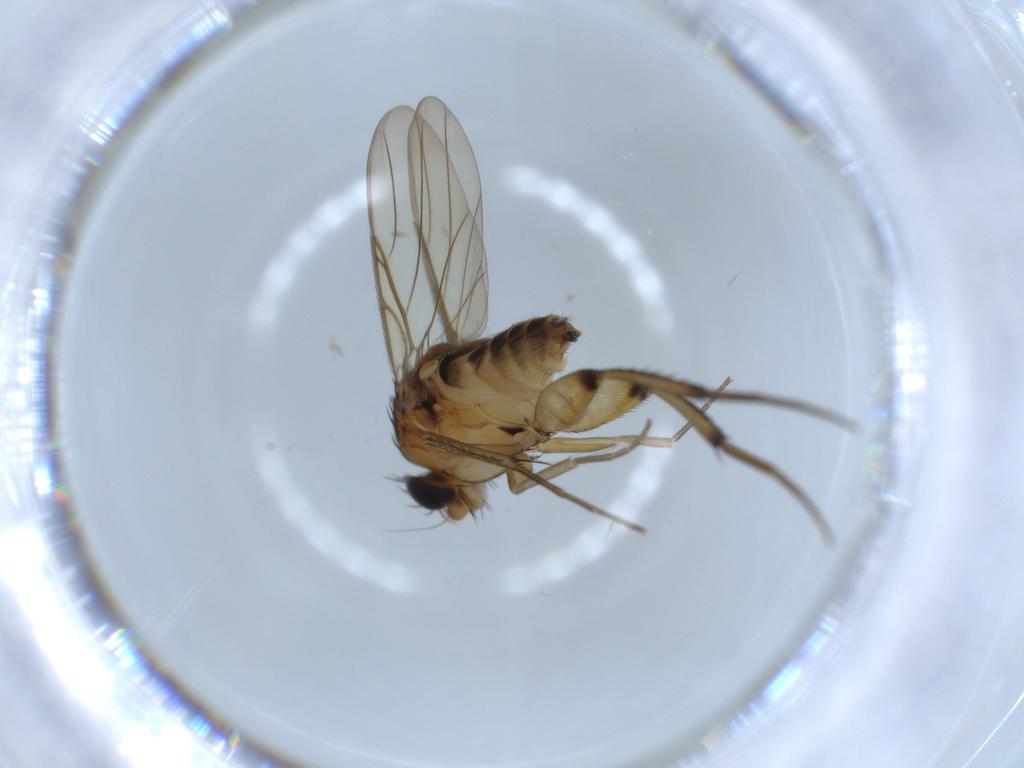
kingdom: Animalia
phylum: Arthropoda
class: Insecta
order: Diptera
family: Phoridae
